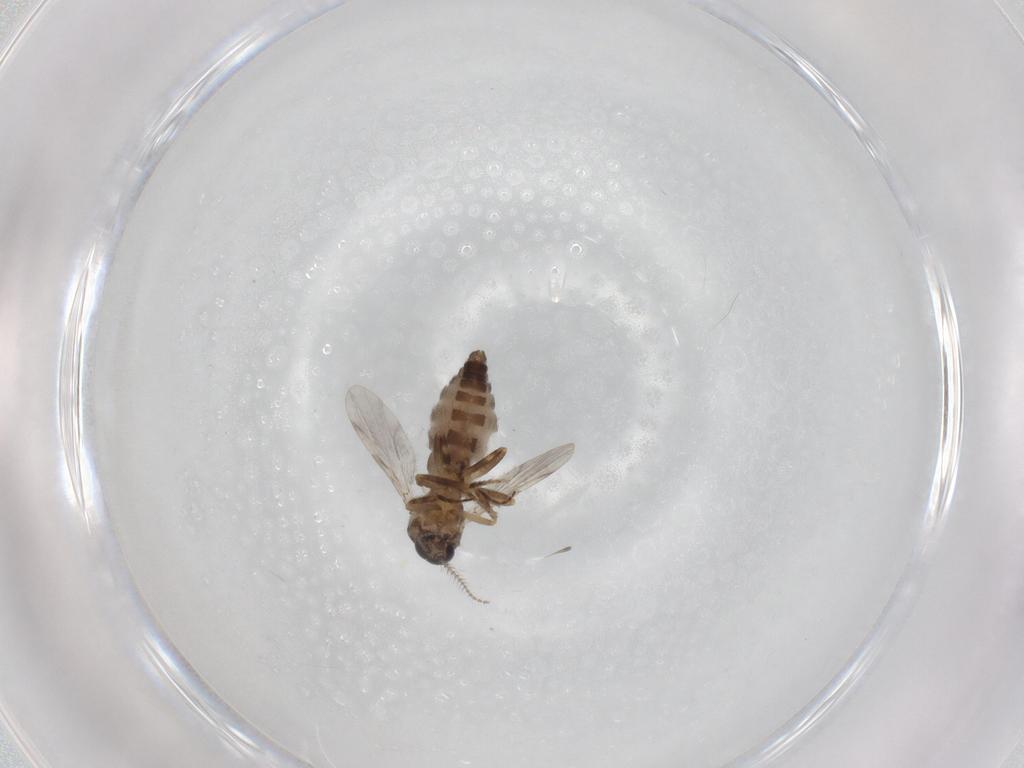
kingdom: Animalia
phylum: Arthropoda
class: Insecta
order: Diptera
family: Ceratopogonidae
